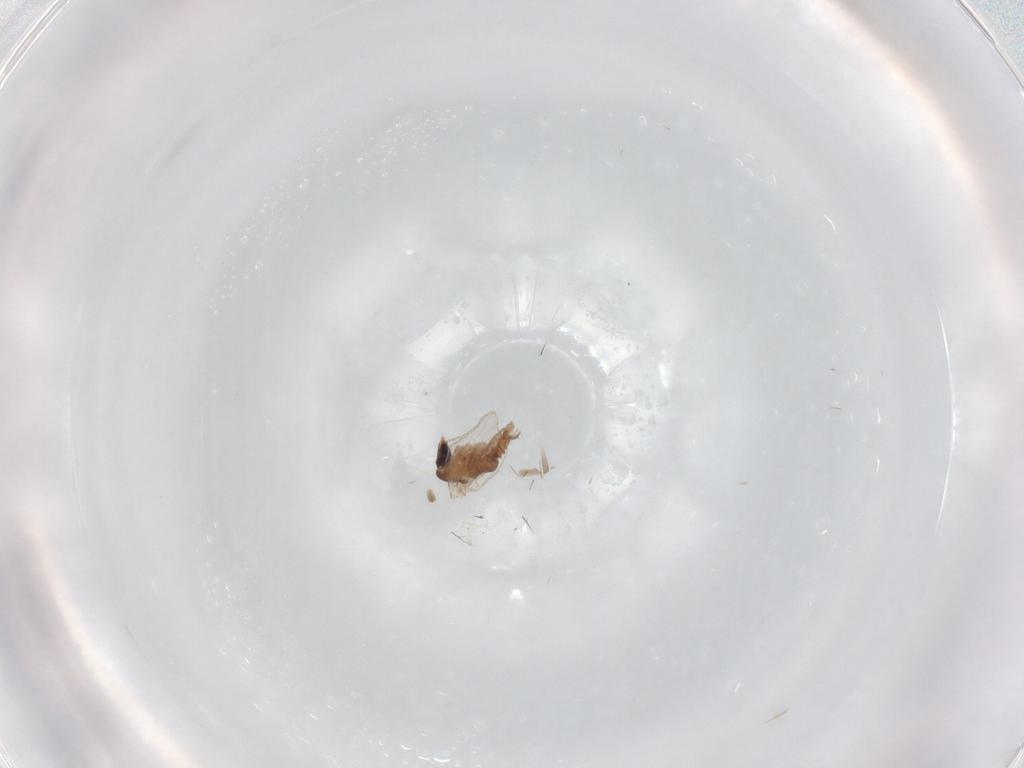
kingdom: Animalia
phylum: Arthropoda
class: Insecta
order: Diptera
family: Psychodidae
